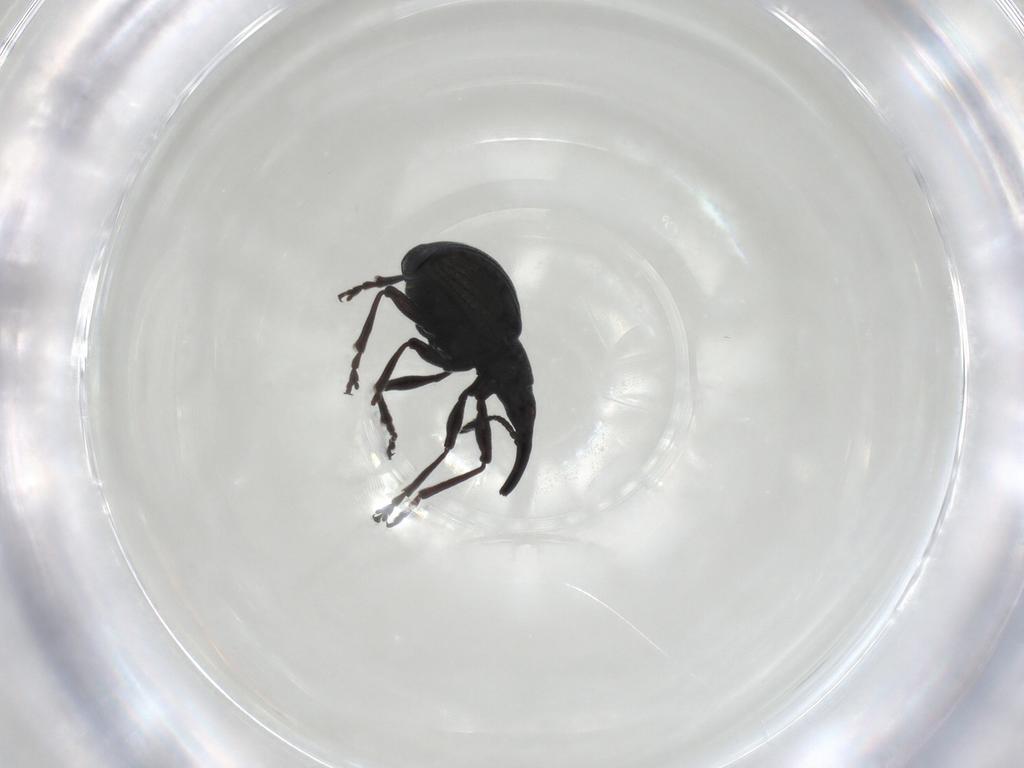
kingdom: Animalia
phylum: Arthropoda
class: Insecta
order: Coleoptera
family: Brentidae
